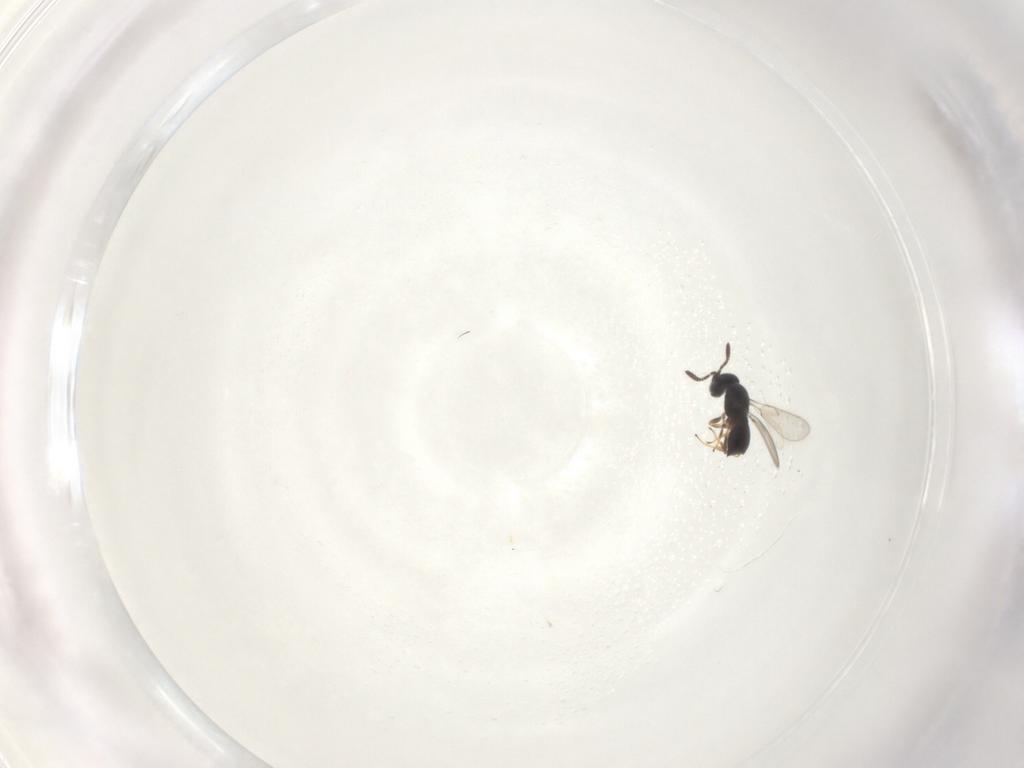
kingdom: Animalia
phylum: Arthropoda
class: Insecta
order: Hymenoptera
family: Scelionidae
